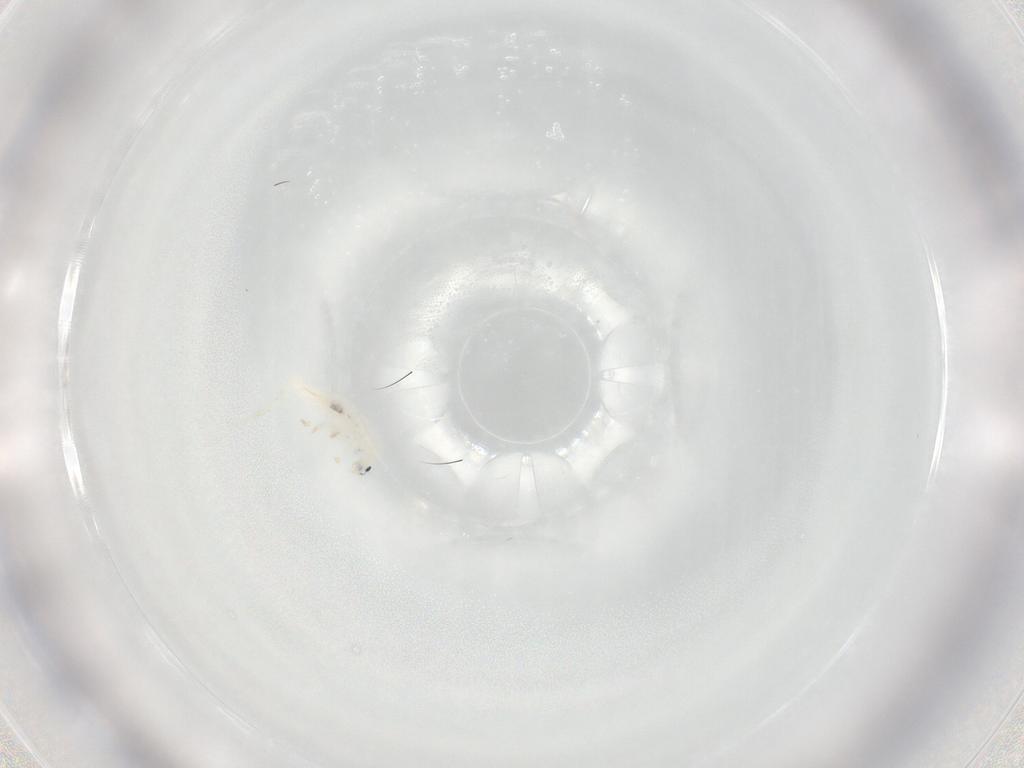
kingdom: Animalia
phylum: Arthropoda
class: Collembola
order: Entomobryomorpha
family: Entomobryidae
